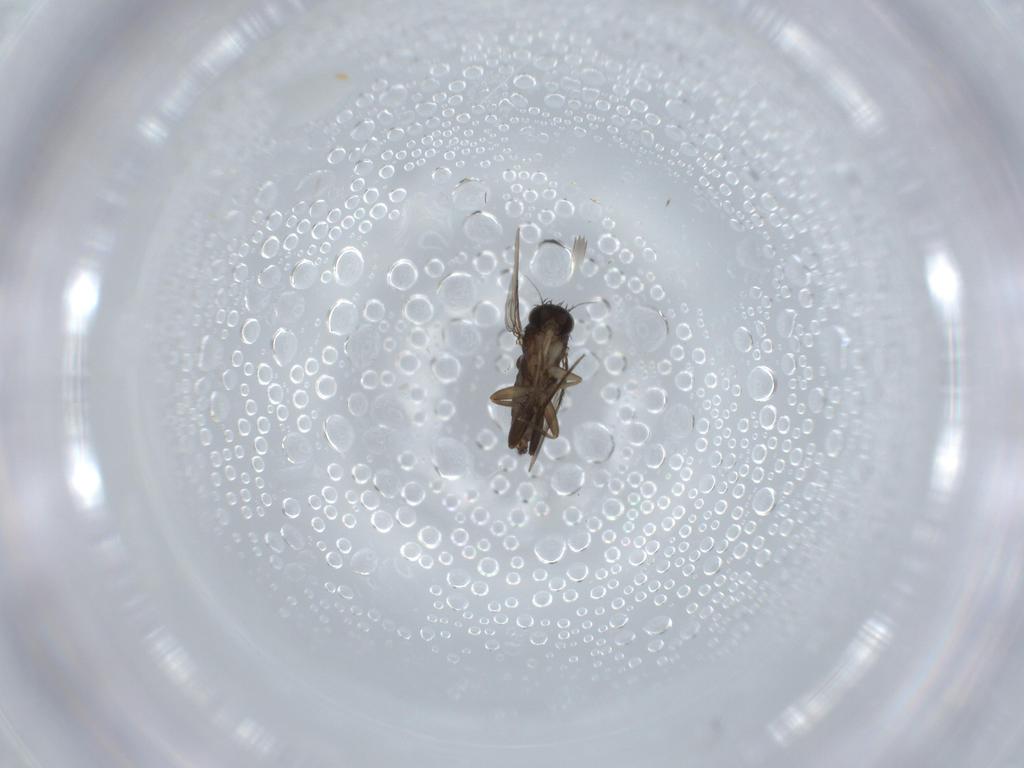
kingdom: Animalia
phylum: Arthropoda
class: Insecta
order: Diptera
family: Phoridae
